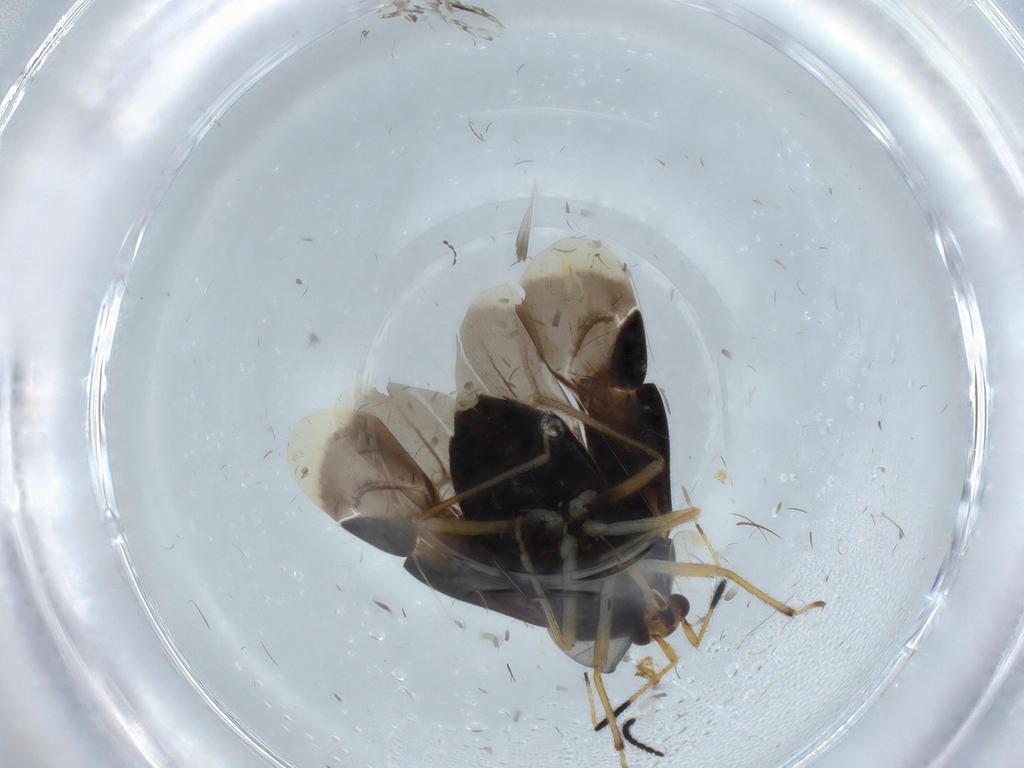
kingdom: Animalia
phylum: Arthropoda
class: Insecta
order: Hemiptera
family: Miridae
